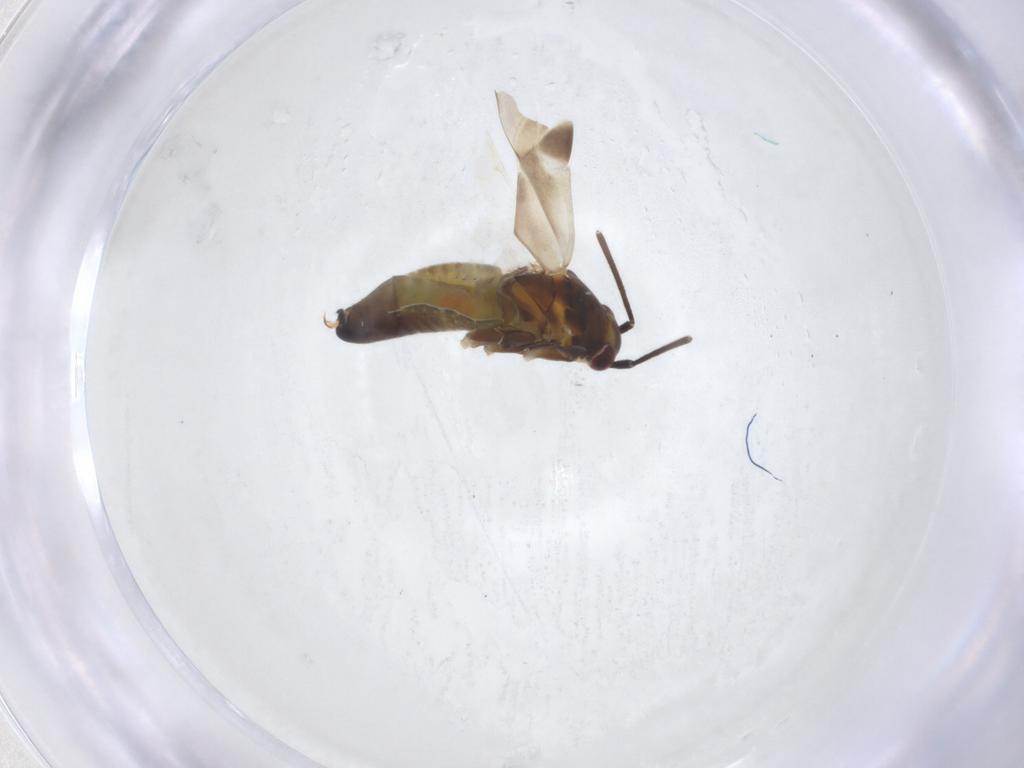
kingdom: Animalia
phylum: Arthropoda
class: Insecta
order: Hemiptera
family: Miridae
